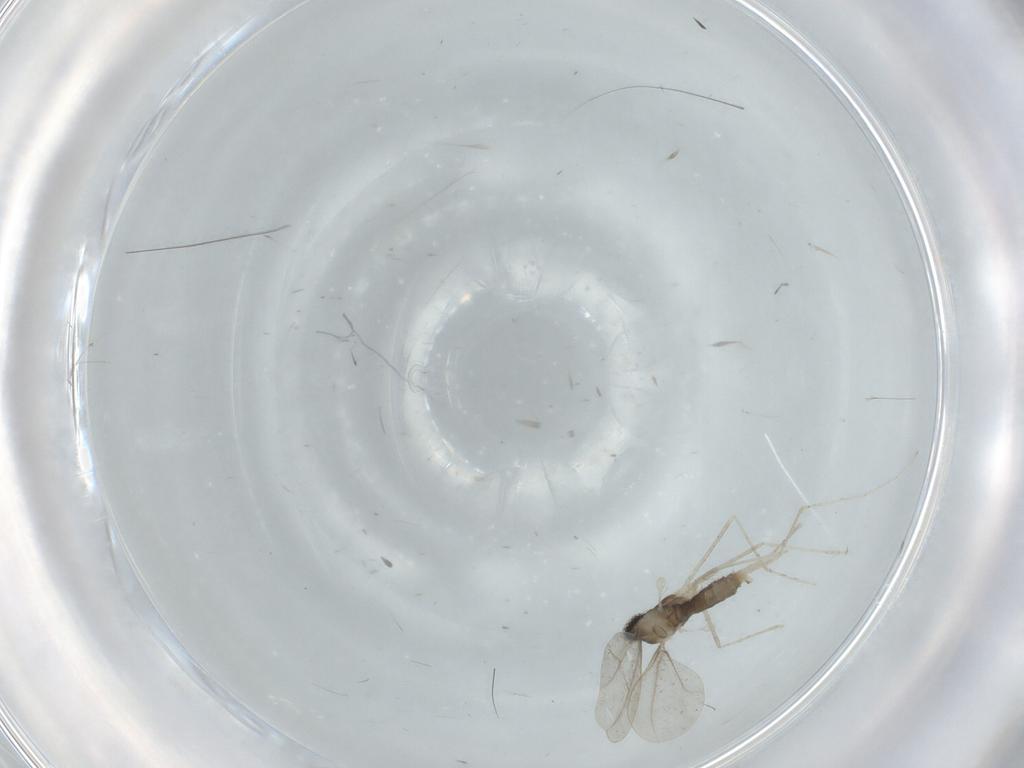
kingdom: Animalia
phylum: Arthropoda
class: Insecta
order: Diptera
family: Cecidomyiidae
